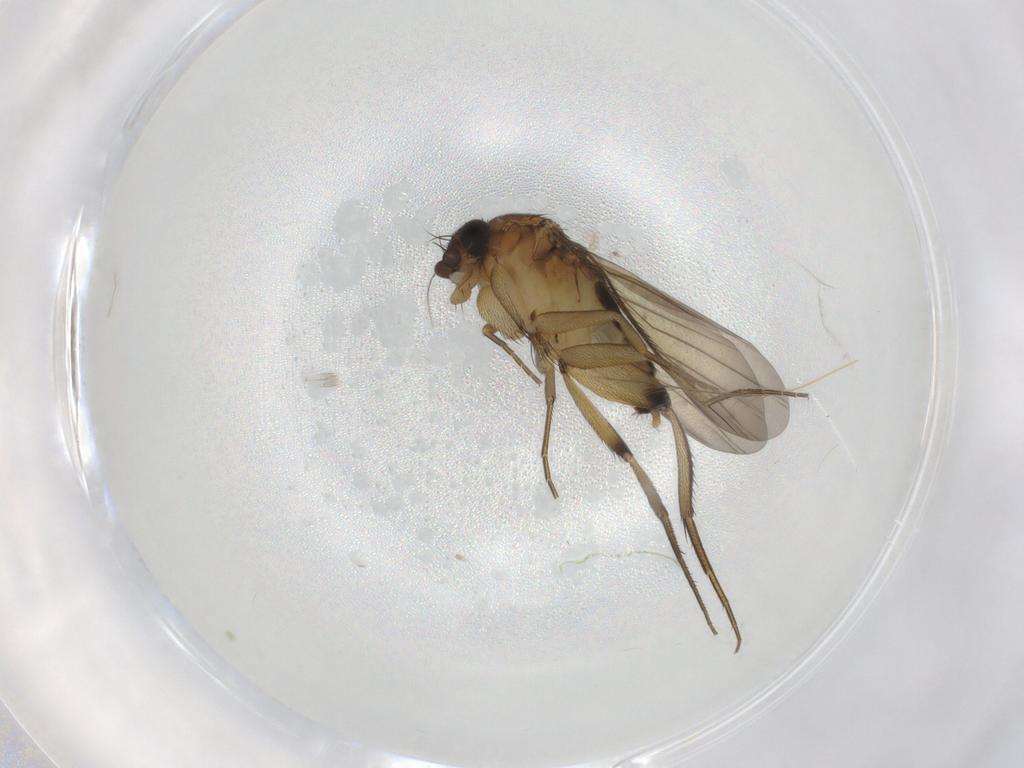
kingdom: Animalia
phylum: Arthropoda
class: Insecta
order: Diptera
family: Phoridae
